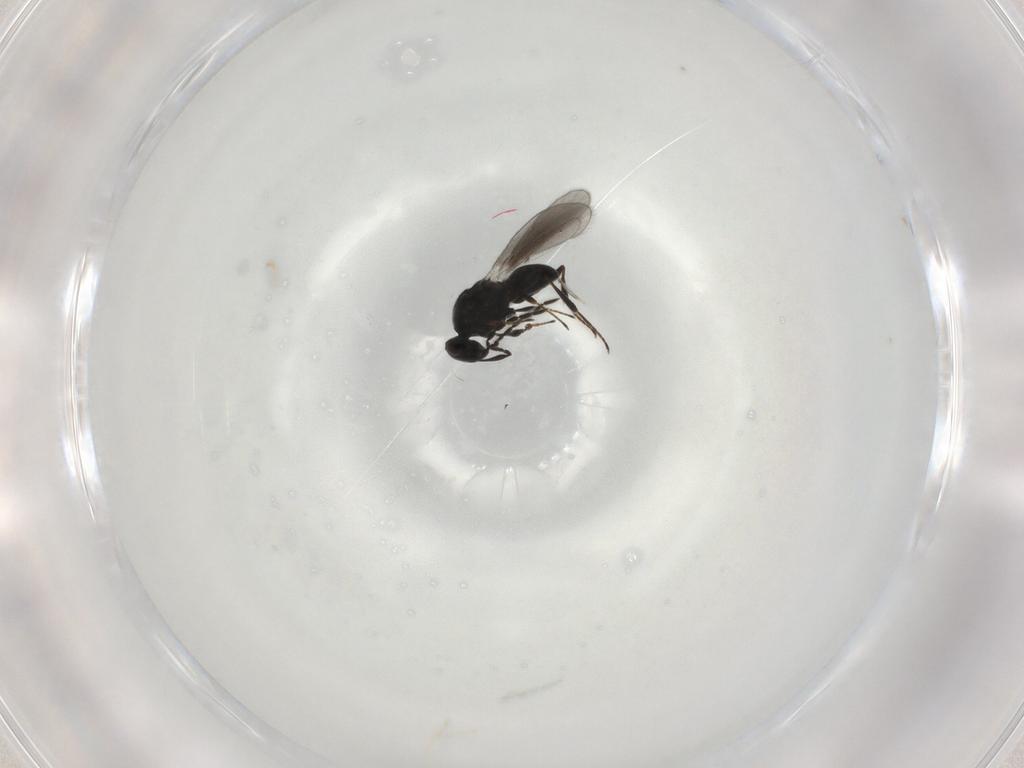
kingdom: Animalia
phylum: Arthropoda
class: Insecta
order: Hymenoptera
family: Platygastridae
